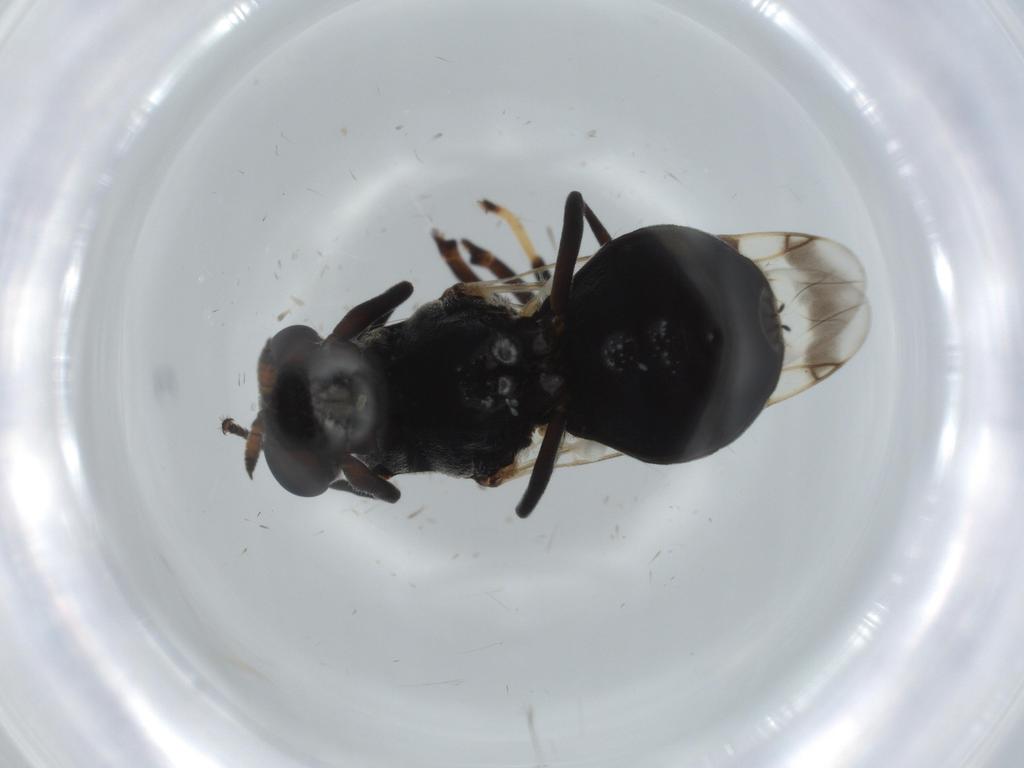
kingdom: Animalia
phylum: Arthropoda
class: Insecta
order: Diptera
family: Stratiomyidae
